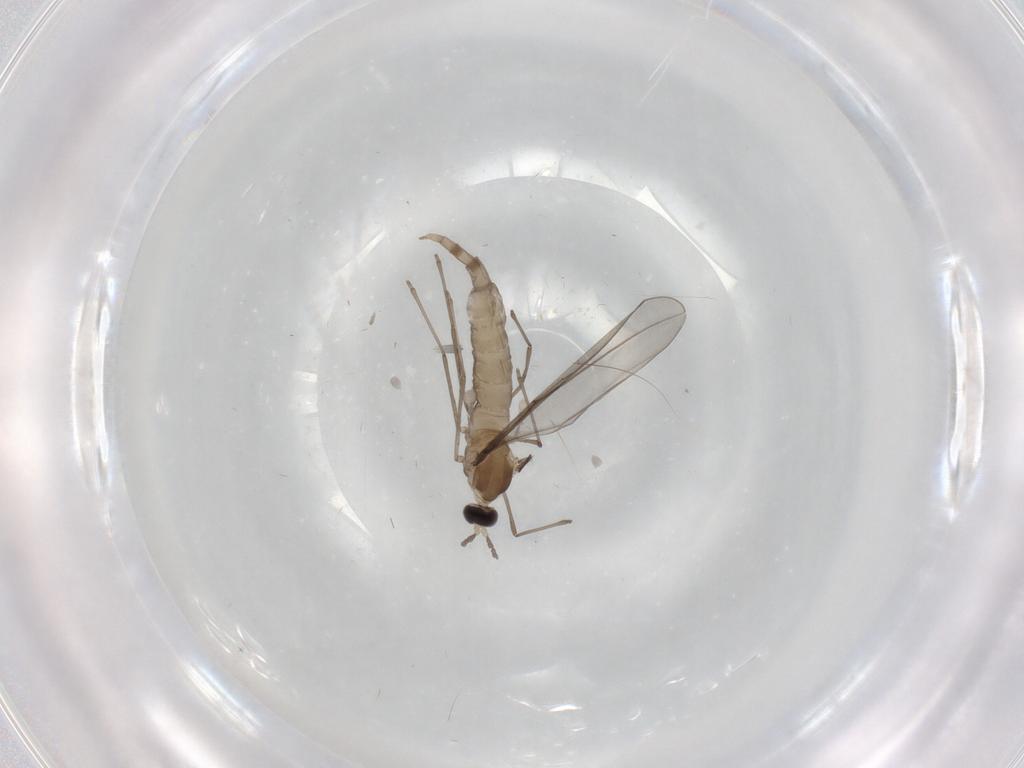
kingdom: Animalia
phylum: Arthropoda
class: Insecta
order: Diptera
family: Cecidomyiidae
